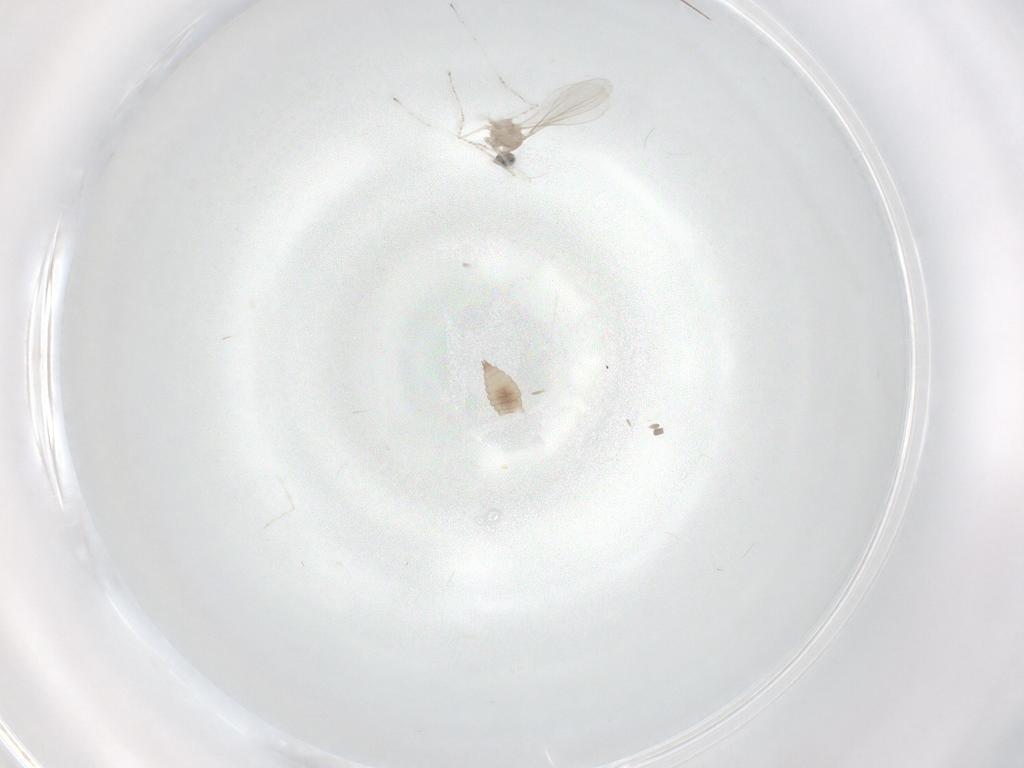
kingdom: Animalia
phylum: Arthropoda
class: Insecta
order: Diptera
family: Cecidomyiidae
